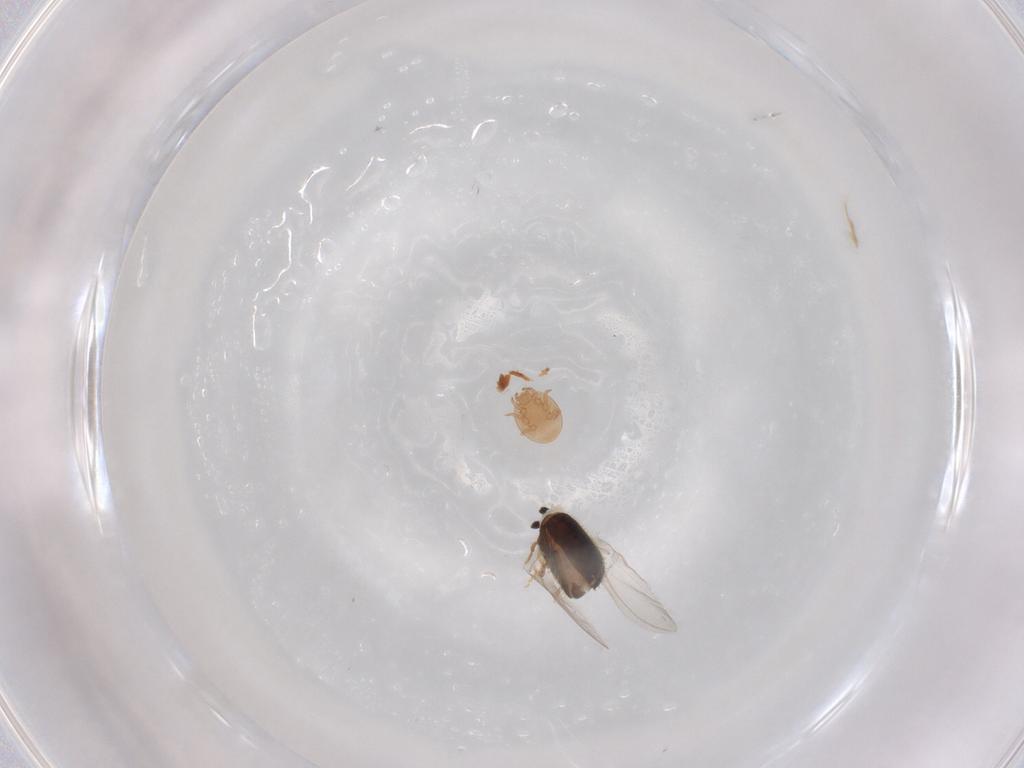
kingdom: Animalia
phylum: Arthropoda
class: Insecta
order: Coleoptera
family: Curculionidae
